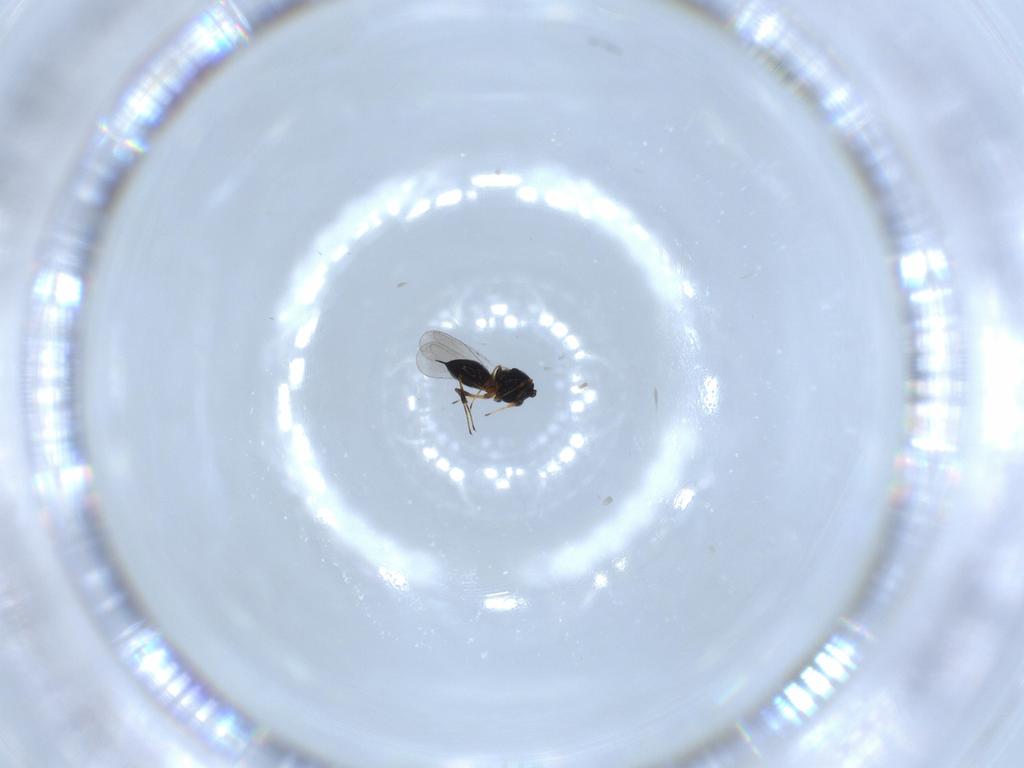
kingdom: Animalia
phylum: Arthropoda
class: Insecta
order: Hymenoptera
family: Platygastridae
